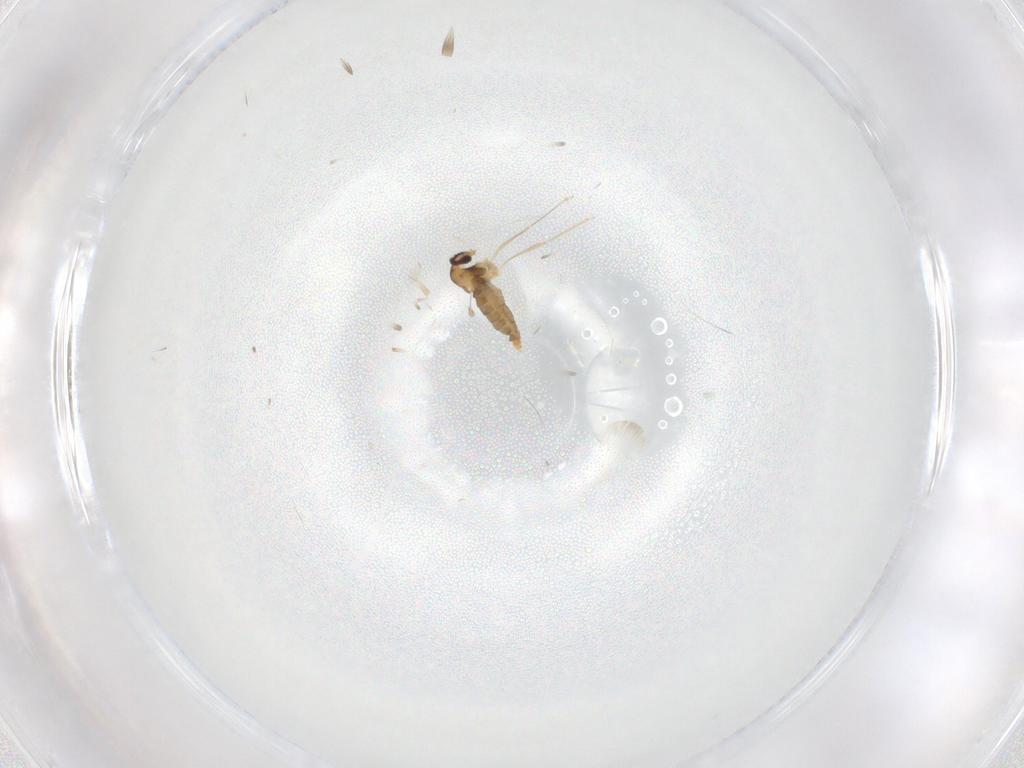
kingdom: Animalia
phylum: Arthropoda
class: Insecta
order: Diptera
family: Cecidomyiidae
